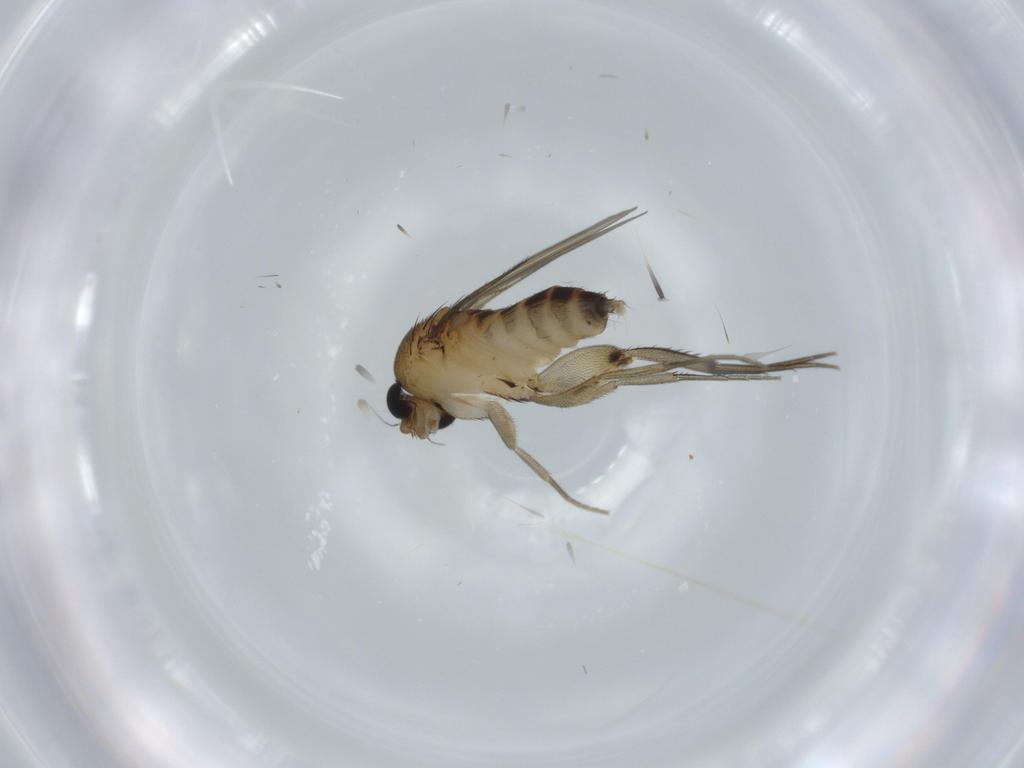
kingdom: Animalia
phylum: Arthropoda
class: Insecta
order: Diptera
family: Phoridae
